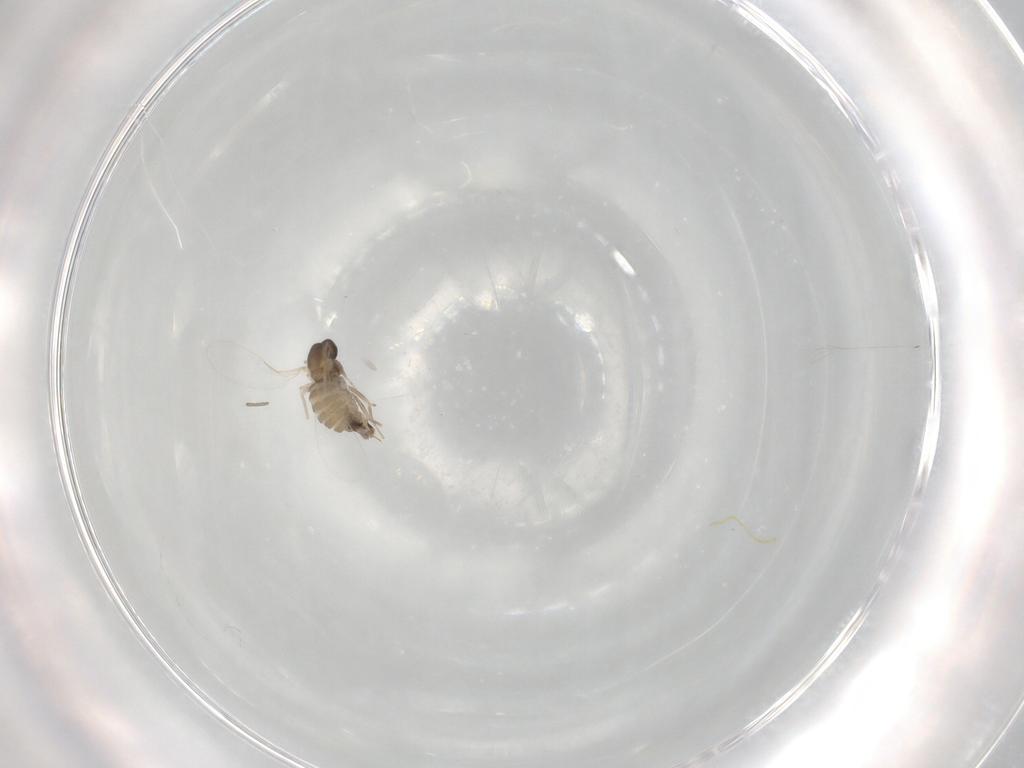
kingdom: Animalia
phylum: Arthropoda
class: Insecta
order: Diptera
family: Cecidomyiidae
